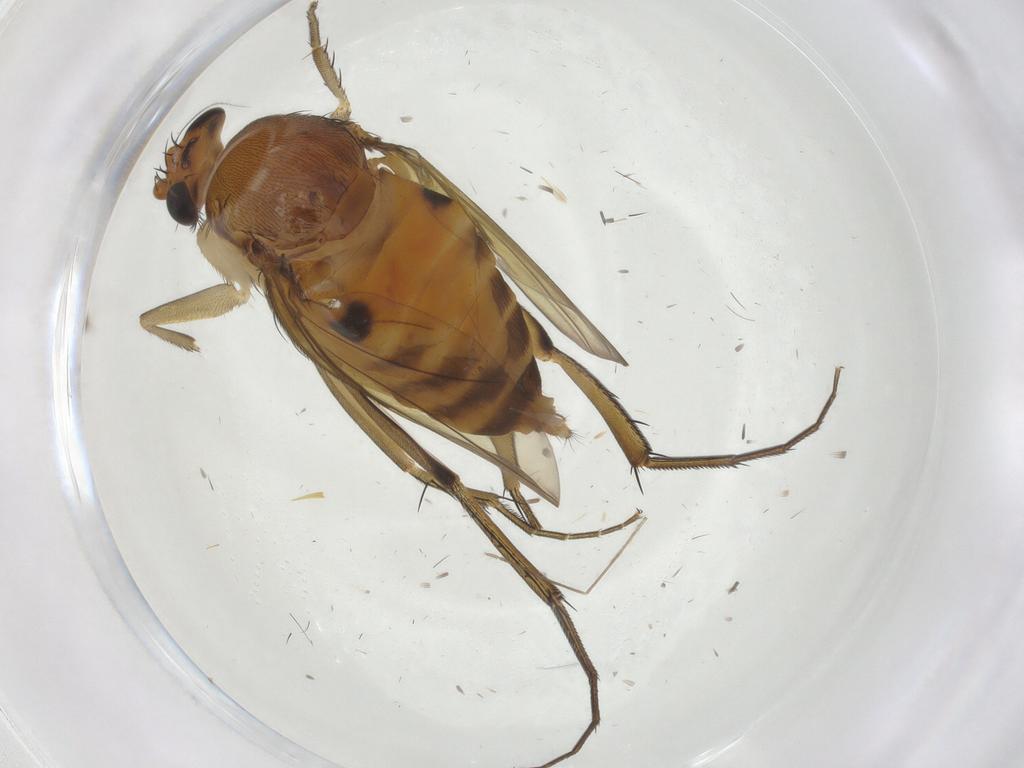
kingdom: Animalia
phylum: Arthropoda
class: Insecta
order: Diptera
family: Phoridae
